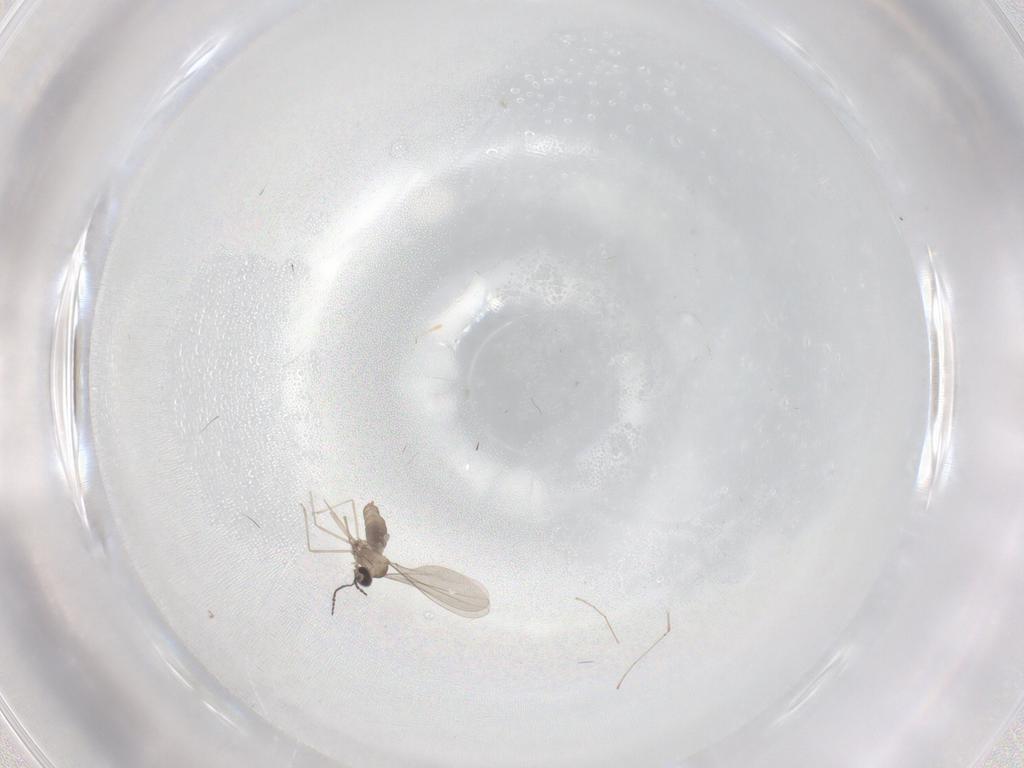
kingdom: Animalia
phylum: Arthropoda
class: Insecta
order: Diptera
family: Cecidomyiidae
